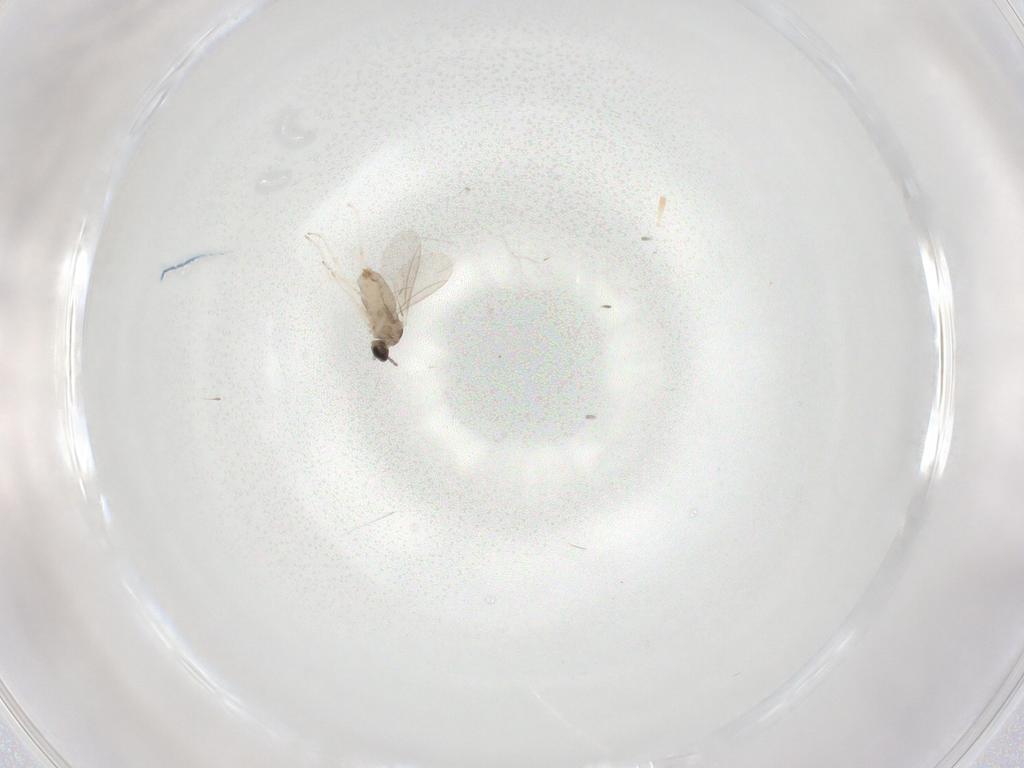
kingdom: Animalia
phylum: Arthropoda
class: Insecta
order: Diptera
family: Cecidomyiidae
